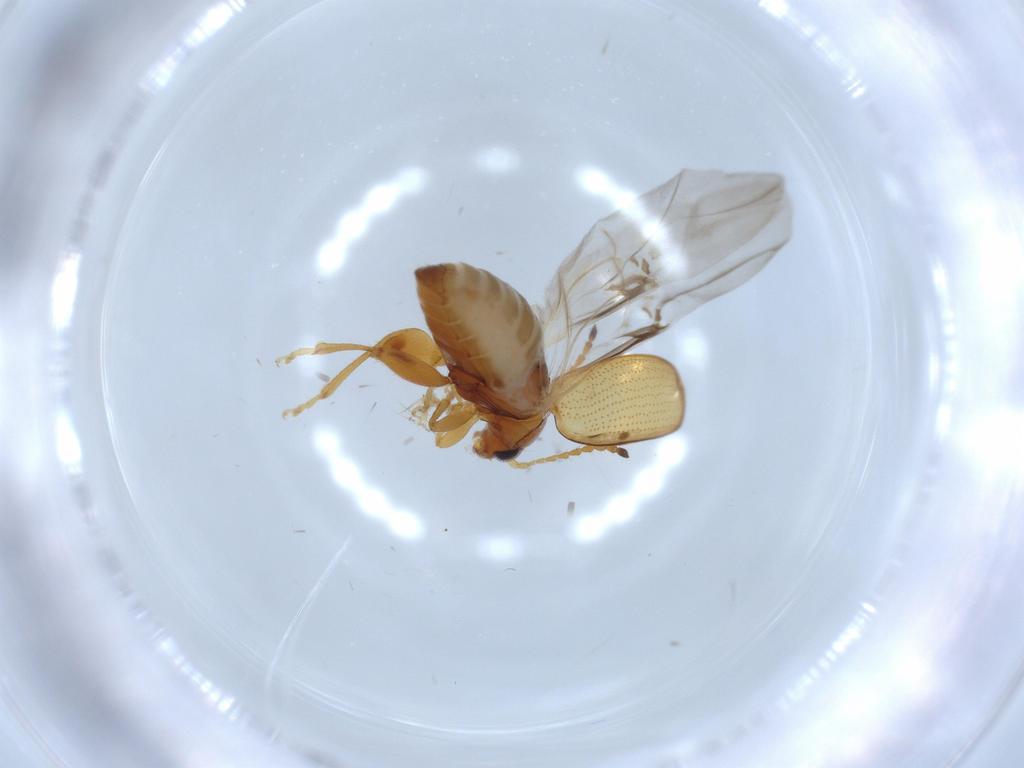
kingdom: Animalia
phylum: Arthropoda
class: Insecta
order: Coleoptera
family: Chrysomelidae
